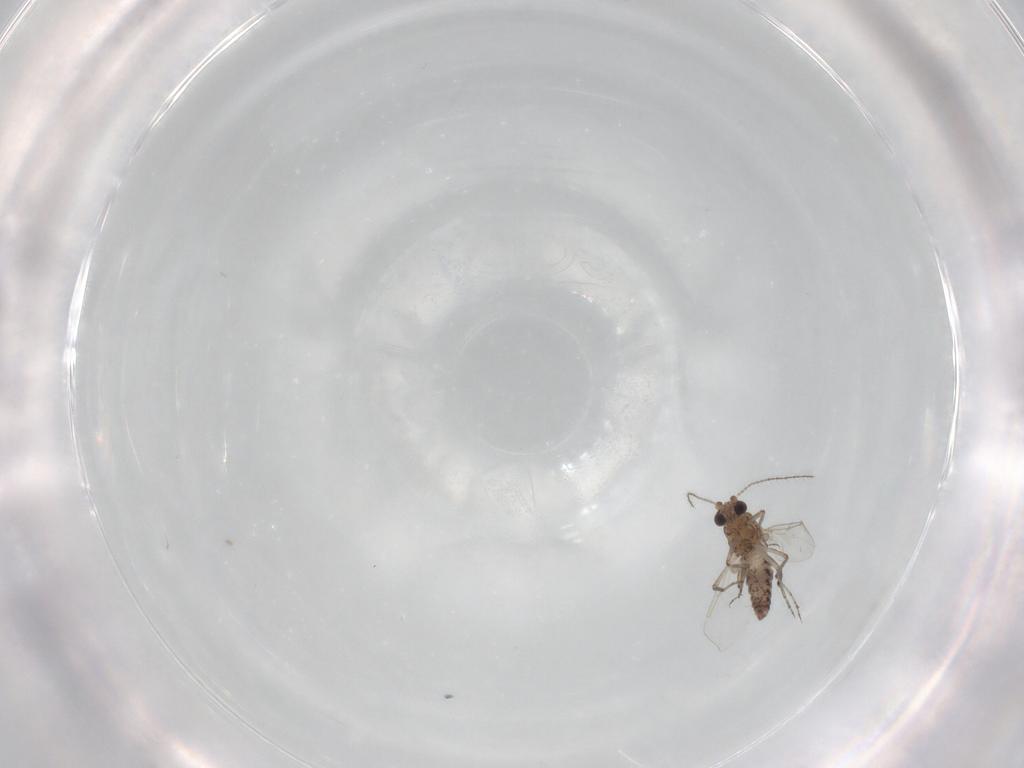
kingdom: Animalia
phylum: Arthropoda
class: Insecta
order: Diptera
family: Ceratopogonidae
